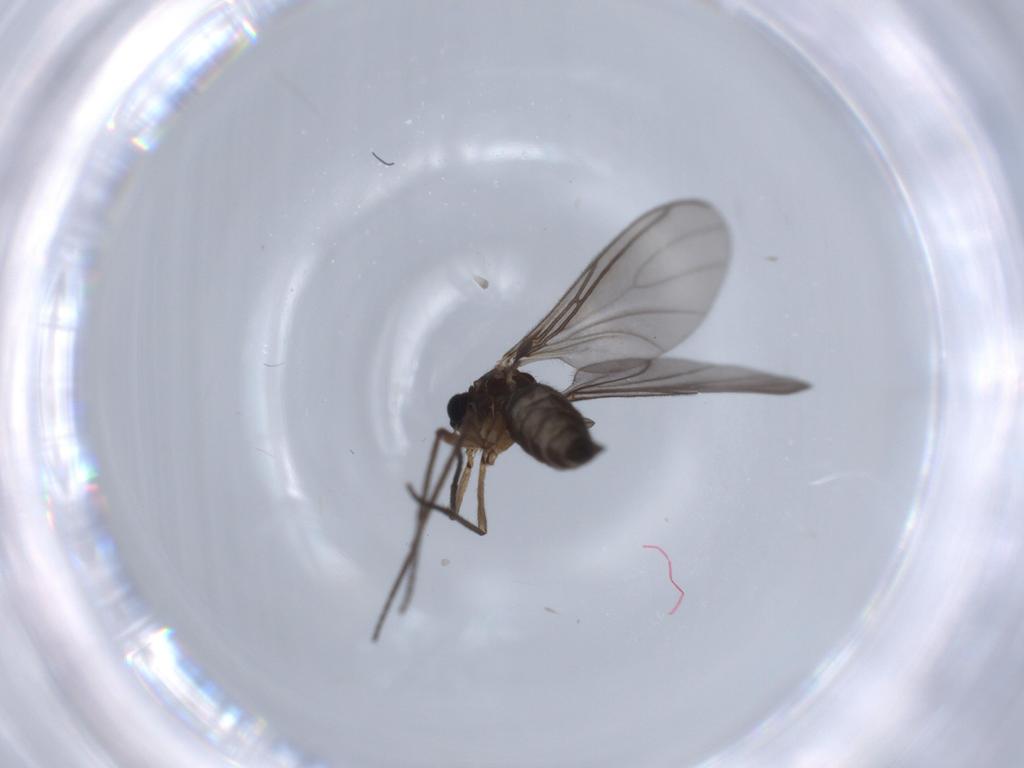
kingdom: Animalia
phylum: Arthropoda
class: Insecta
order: Diptera
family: Sciaridae
